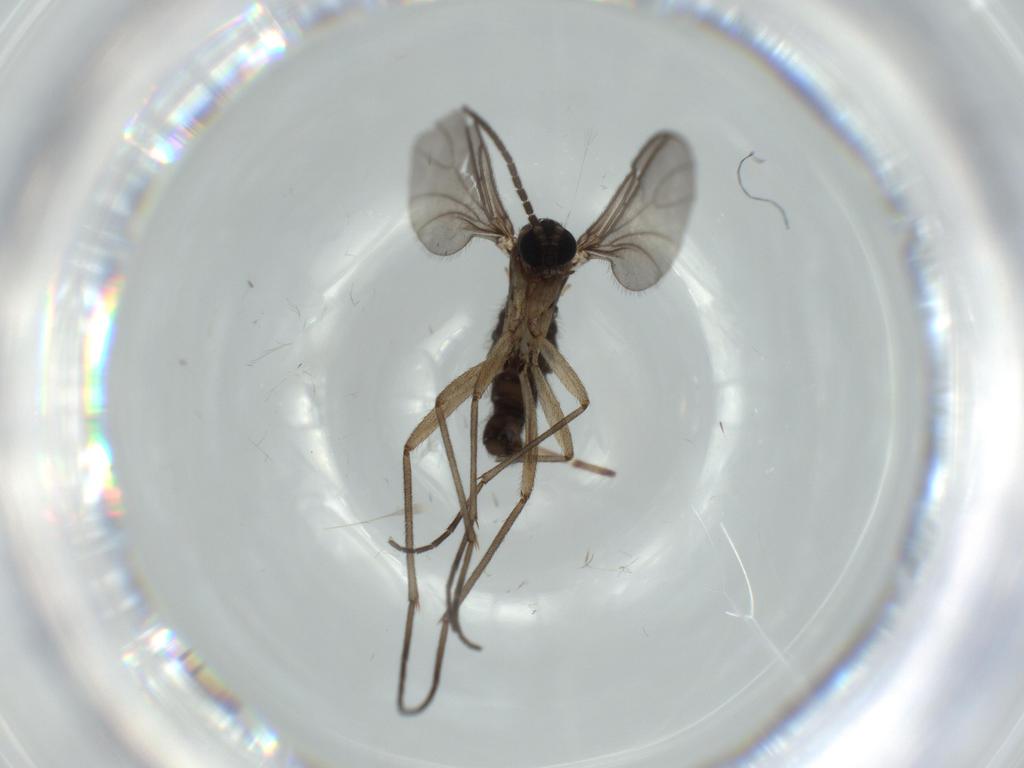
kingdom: Animalia
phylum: Arthropoda
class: Insecta
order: Diptera
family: Sciaridae
